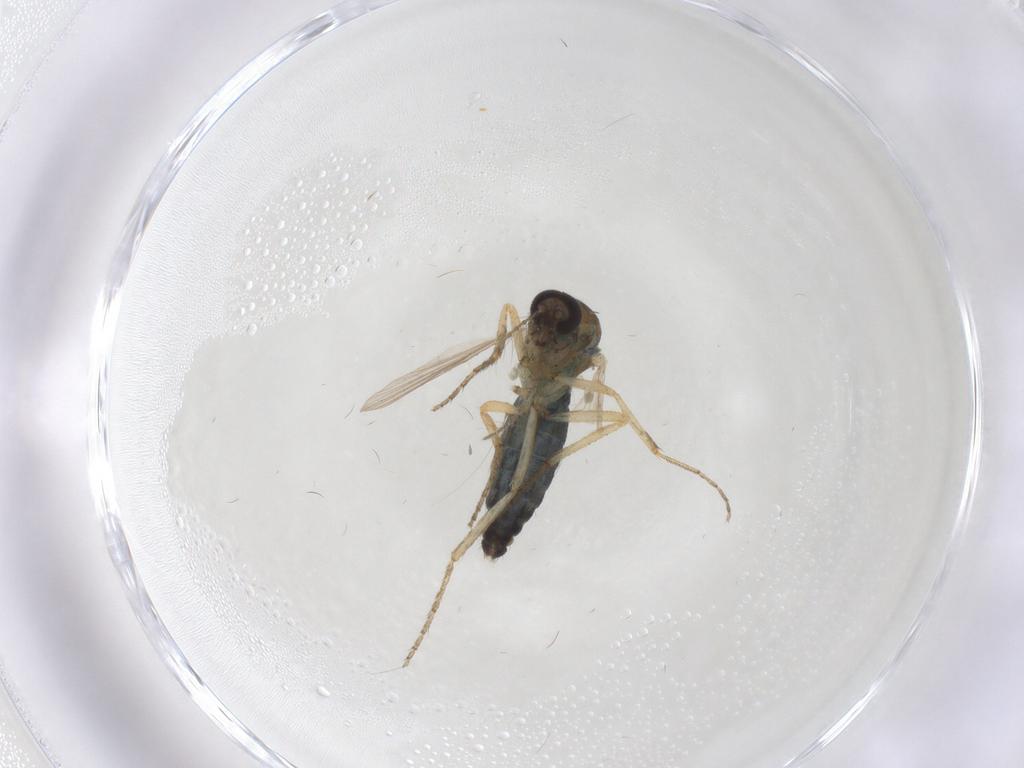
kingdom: Animalia
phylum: Arthropoda
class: Insecta
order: Diptera
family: Ceratopogonidae
